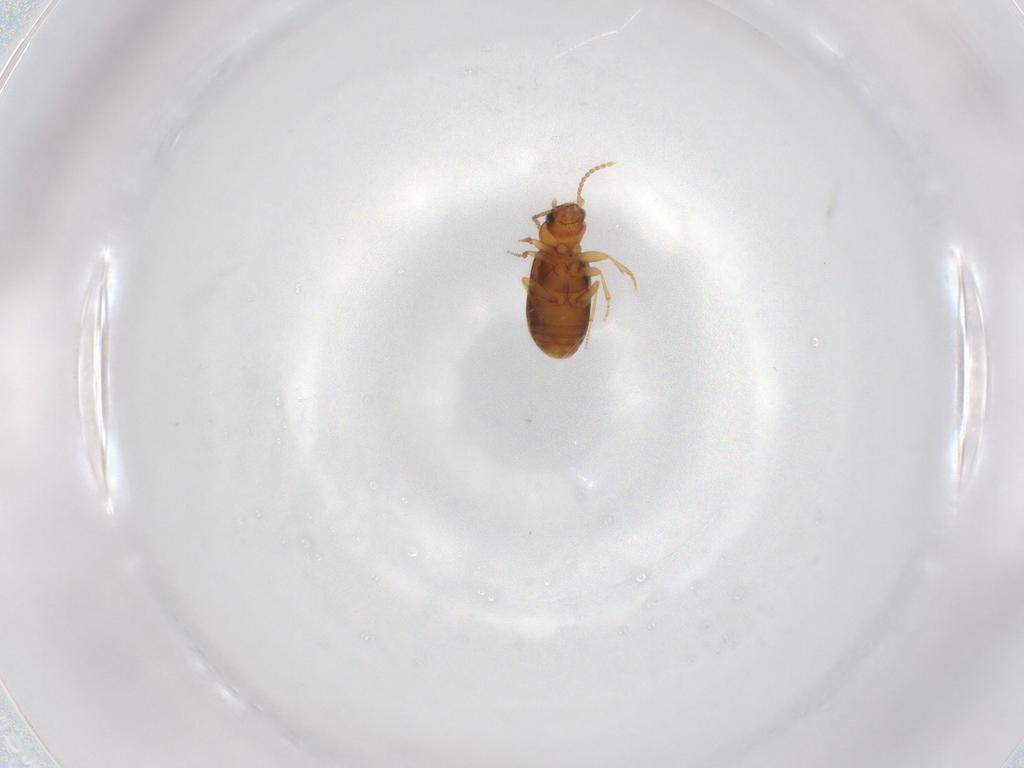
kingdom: Animalia
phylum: Arthropoda
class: Insecta
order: Coleoptera
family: Carabidae
